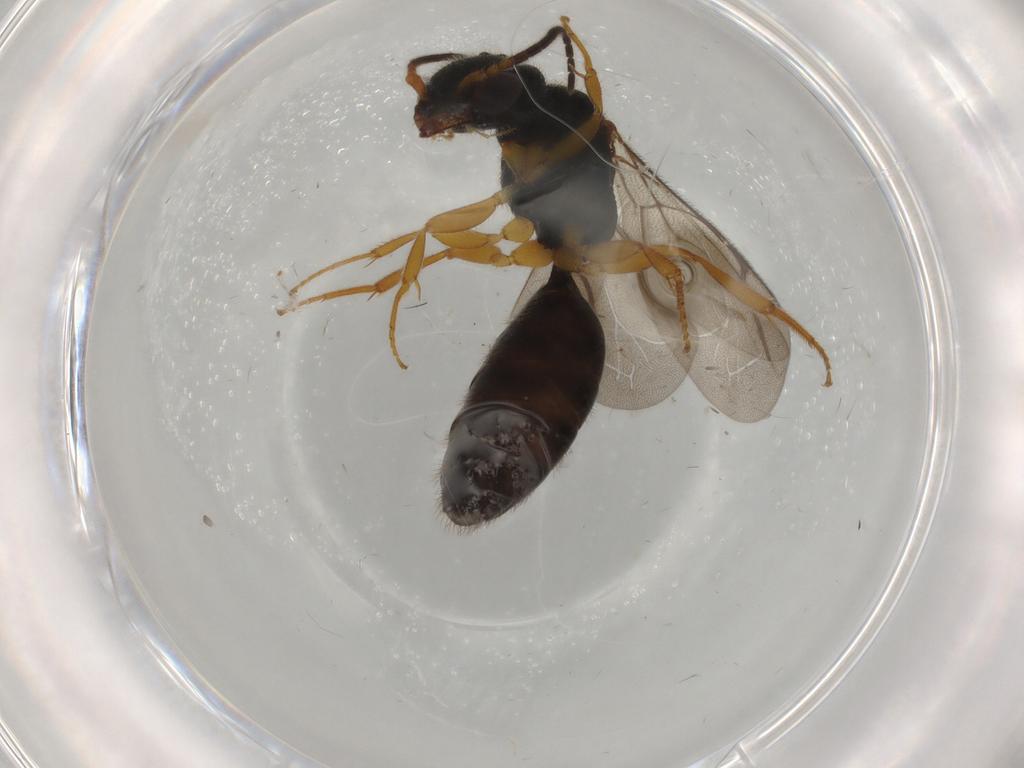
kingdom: Animalia
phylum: Arthropoda
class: Insecta
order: Hymenoptera
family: Bethylidae
